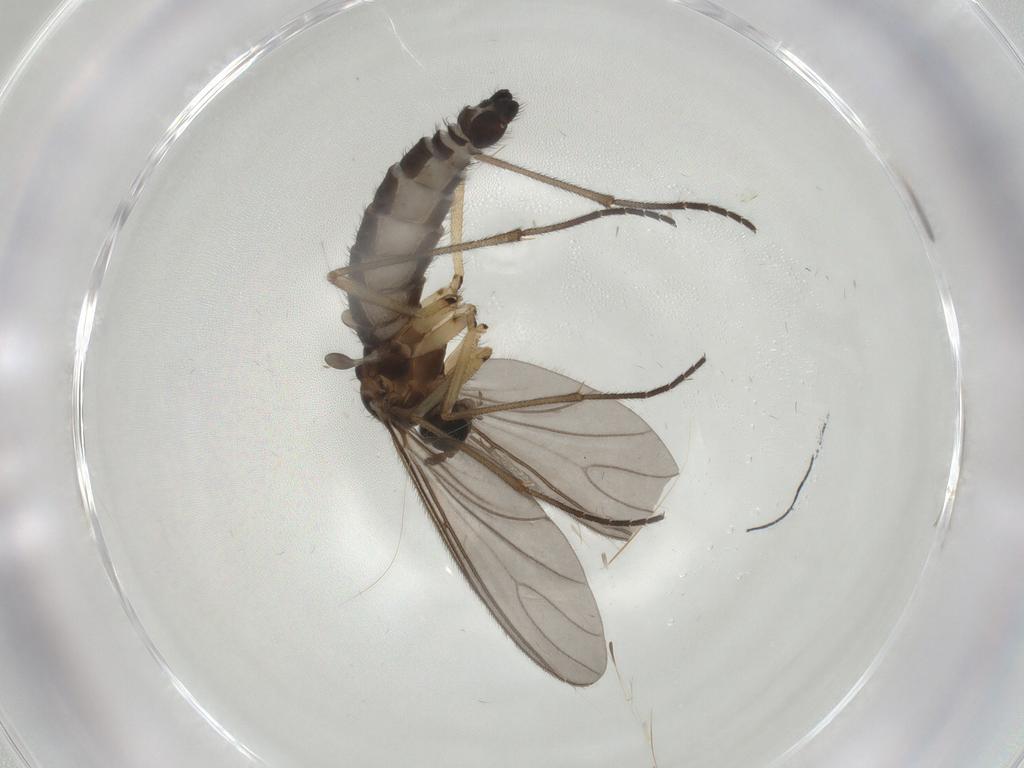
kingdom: Animalia
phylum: Arthropoda
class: Insecta
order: Diptera
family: Sciaridae
